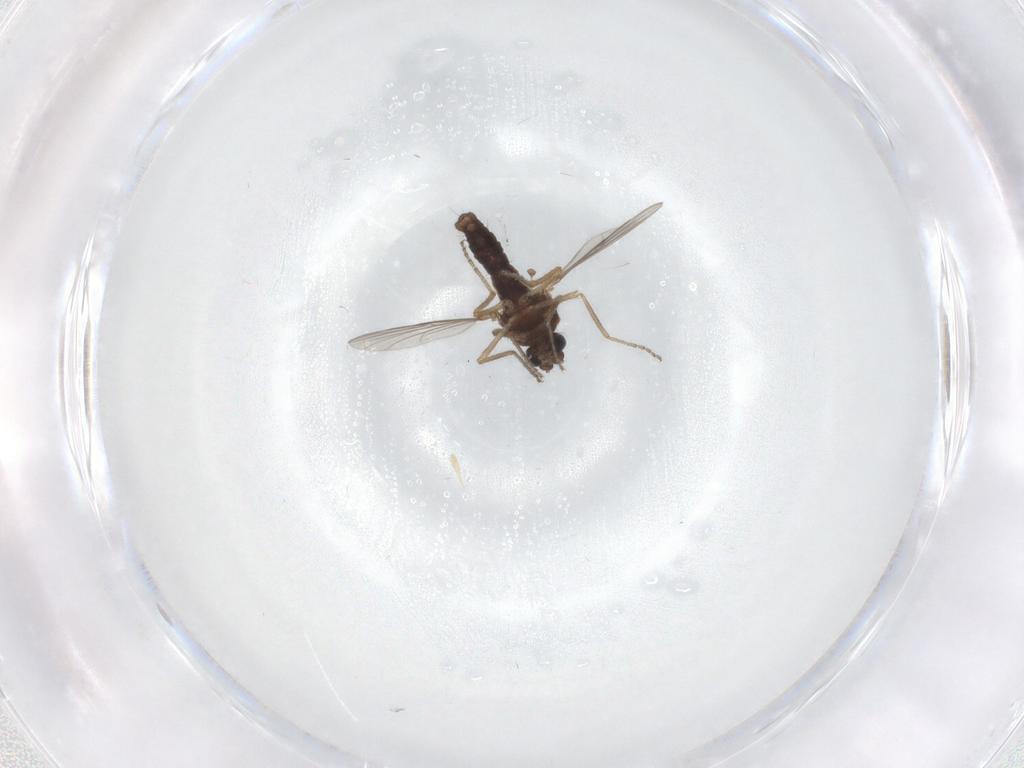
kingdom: Animalia
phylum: Arthropoda
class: Insecta
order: Diptera
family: Ceratopogonidae
